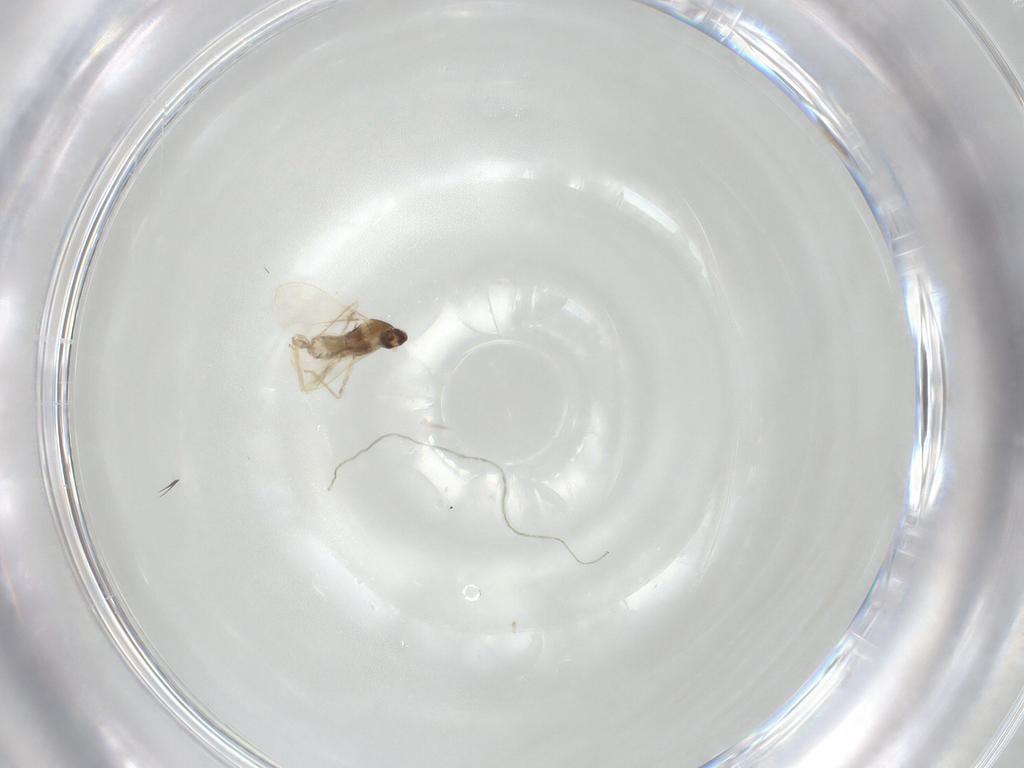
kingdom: Animalia
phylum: Arthropoda
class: Insecta
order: Diptera
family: Cecidomyiidae
